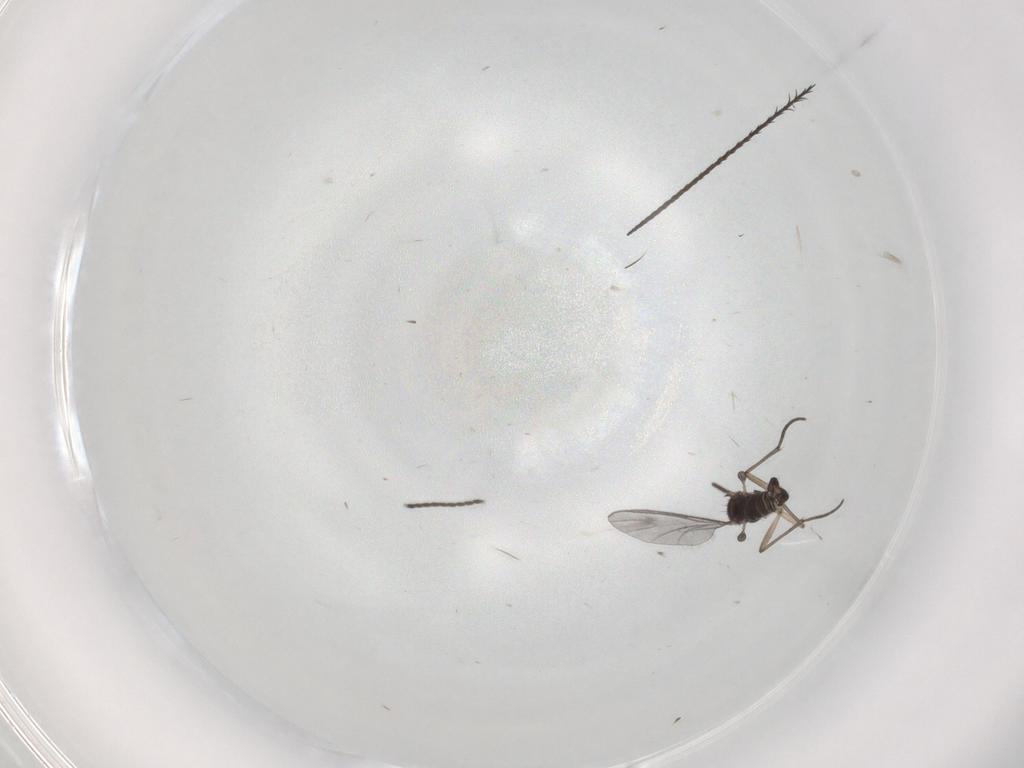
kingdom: Animalia
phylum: Arthropoda
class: Insecta
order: Diptera
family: Sciaridae
